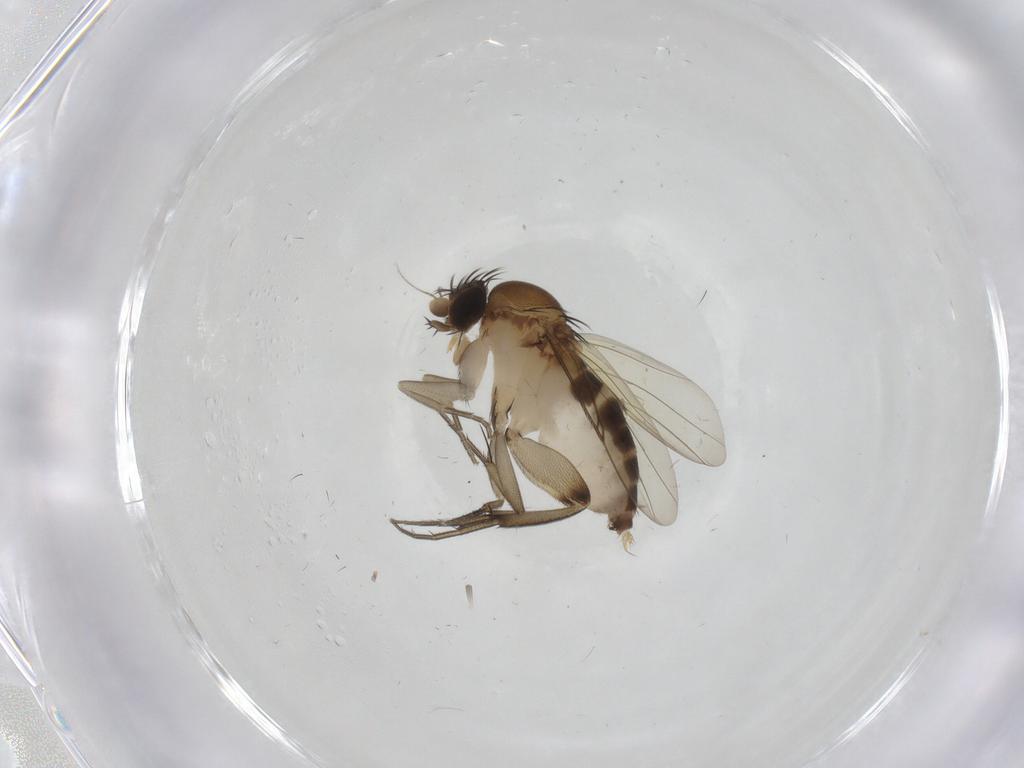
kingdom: Animalia
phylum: Arthropoda
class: Insecta
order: Diptera
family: Phoridae
